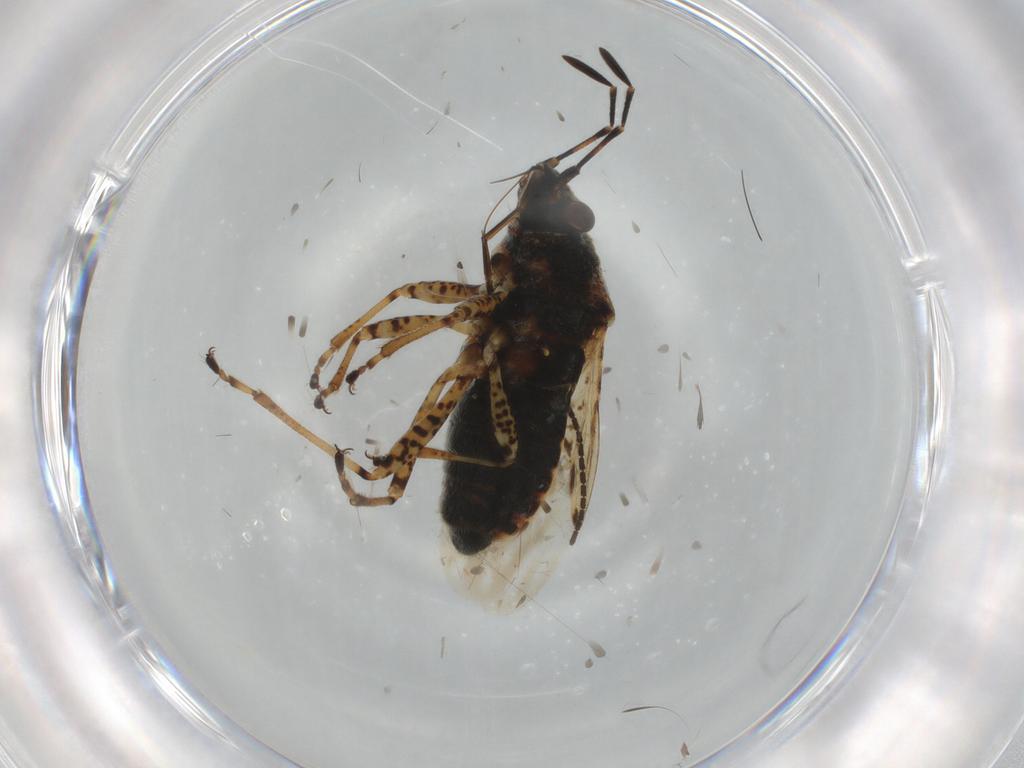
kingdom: Animalia
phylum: Arthropoda
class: Insecta
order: Hemiptera
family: Lygaeidae
